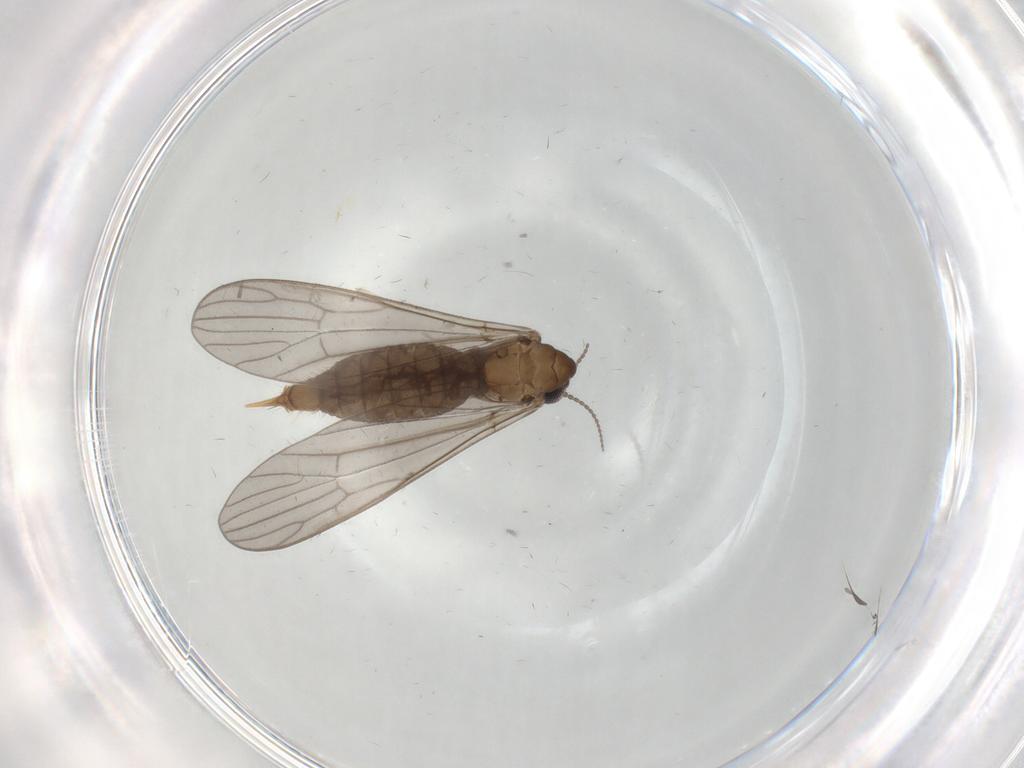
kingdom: Animalia
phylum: Arthropoda
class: Insecta
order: Diptera
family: Limoniidae
